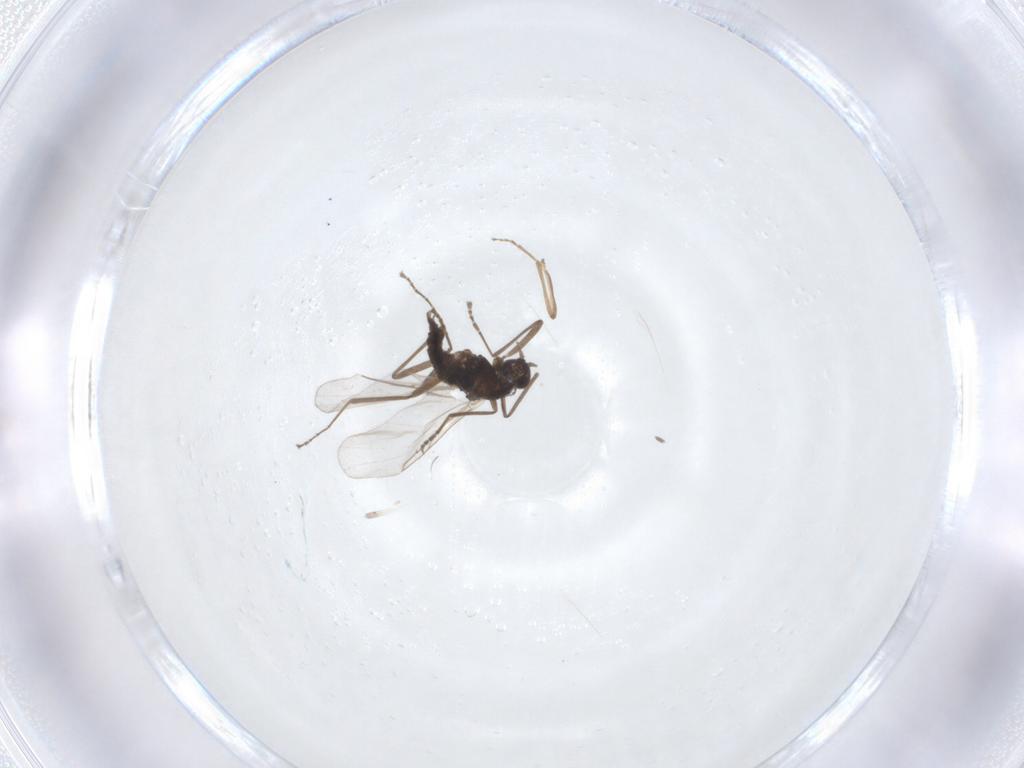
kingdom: Animalia
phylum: Arthropoda
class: Insecta
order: Diptera
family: Cecidomyiidae
